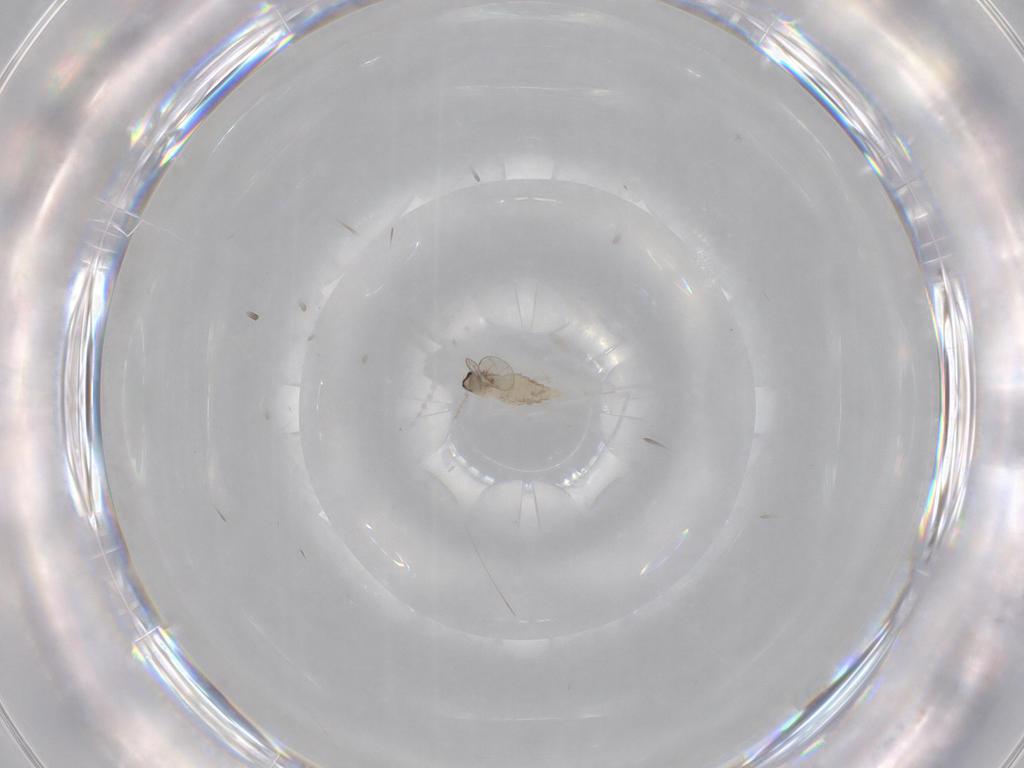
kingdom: Animalia
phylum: Arthropoda
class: Insecta
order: Diptera
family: Cecidomyiidae
